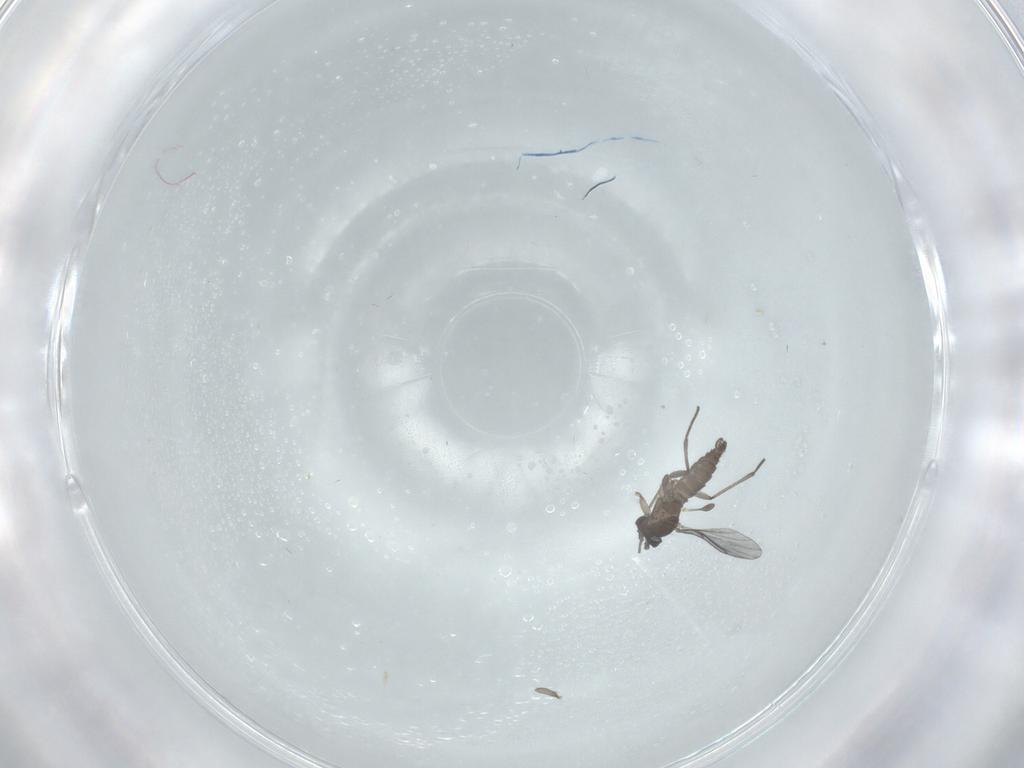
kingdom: Animalia
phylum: Arthropoda
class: Insecta
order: Diptera
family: Sciaridae
